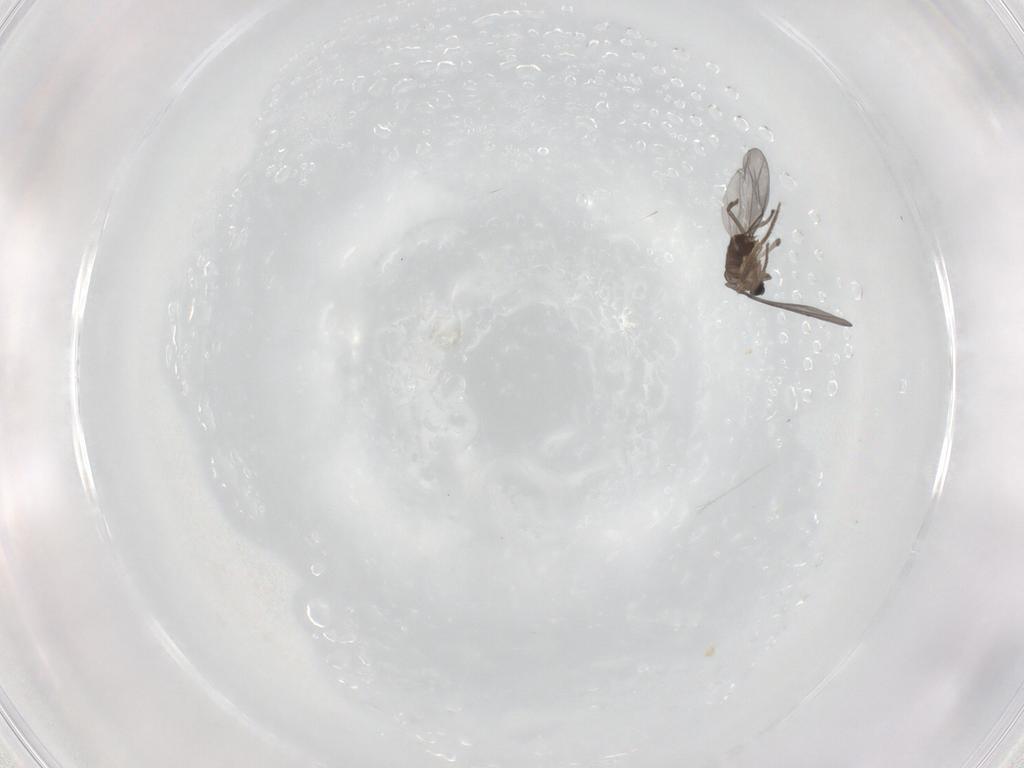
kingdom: Animalia
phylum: Arthropoda
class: Insecta
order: Diptera
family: Phoridae
